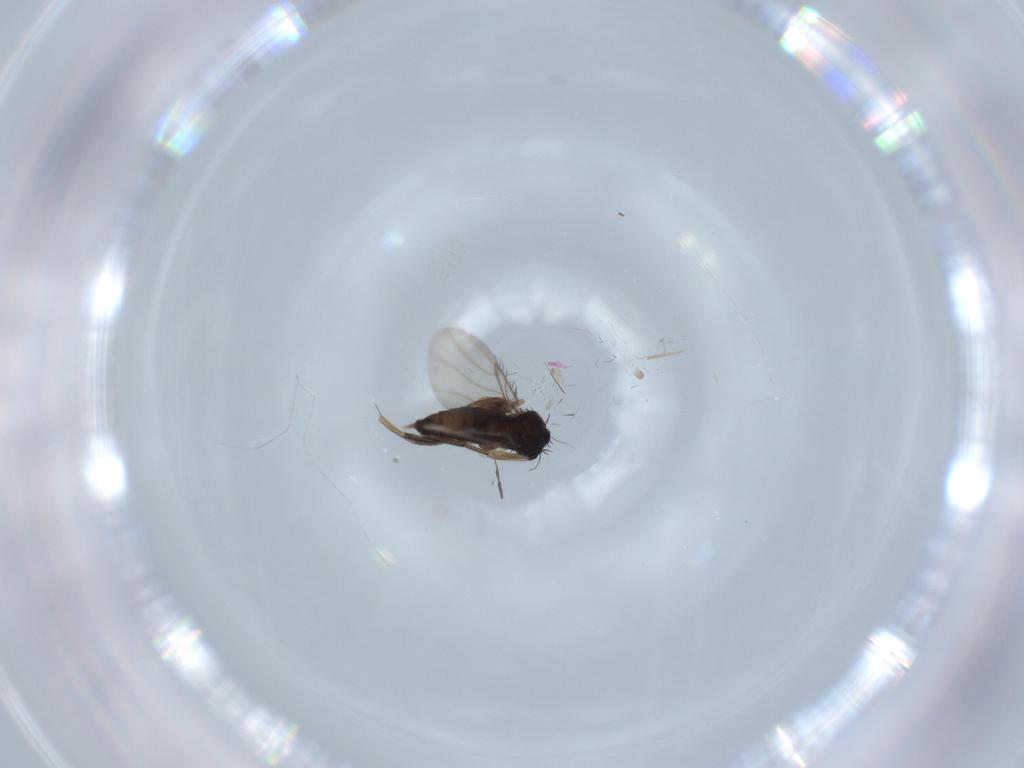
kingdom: Animalia
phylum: Arthropoda
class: Insecta
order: Diptera
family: Phoridae
